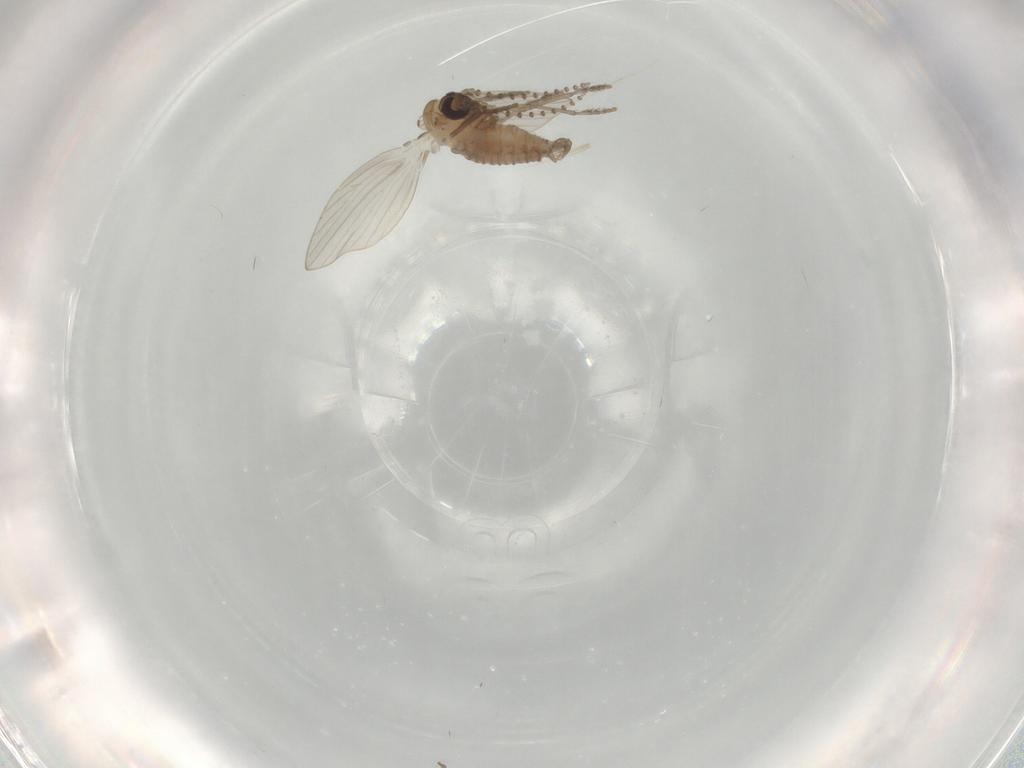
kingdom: Animalia
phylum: Arthropoda
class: Insecta
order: Diptera
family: Psychodidae
